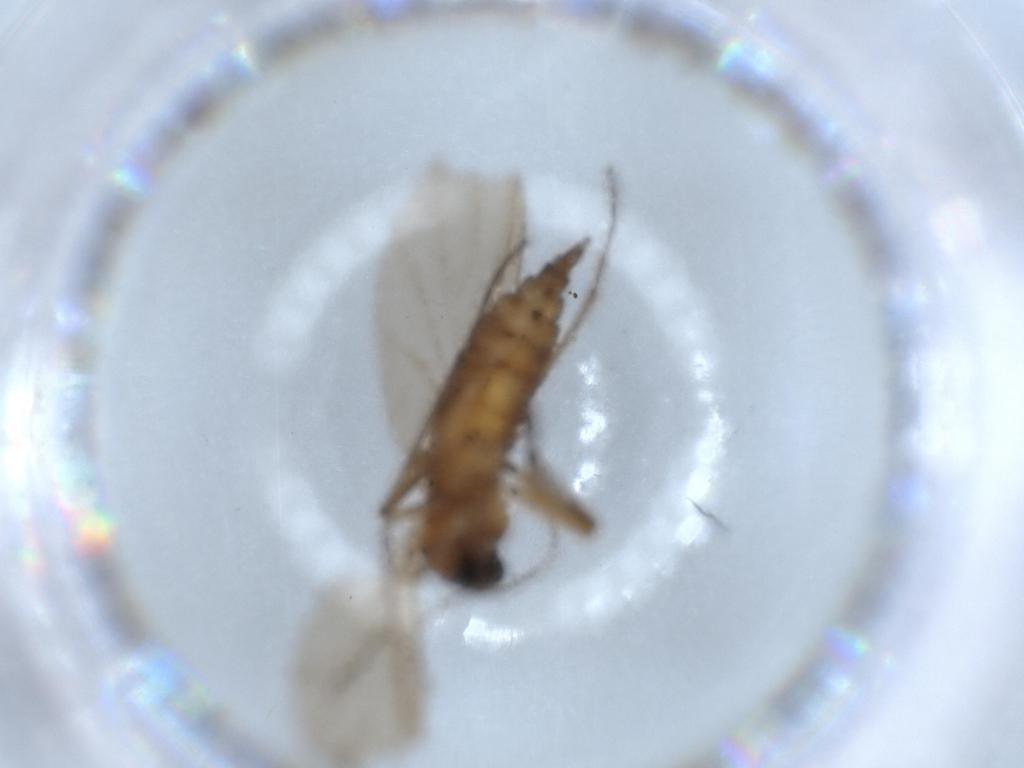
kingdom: Animalia
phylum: Arthropoda
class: Insecta
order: Diptera
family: Sciaridae
